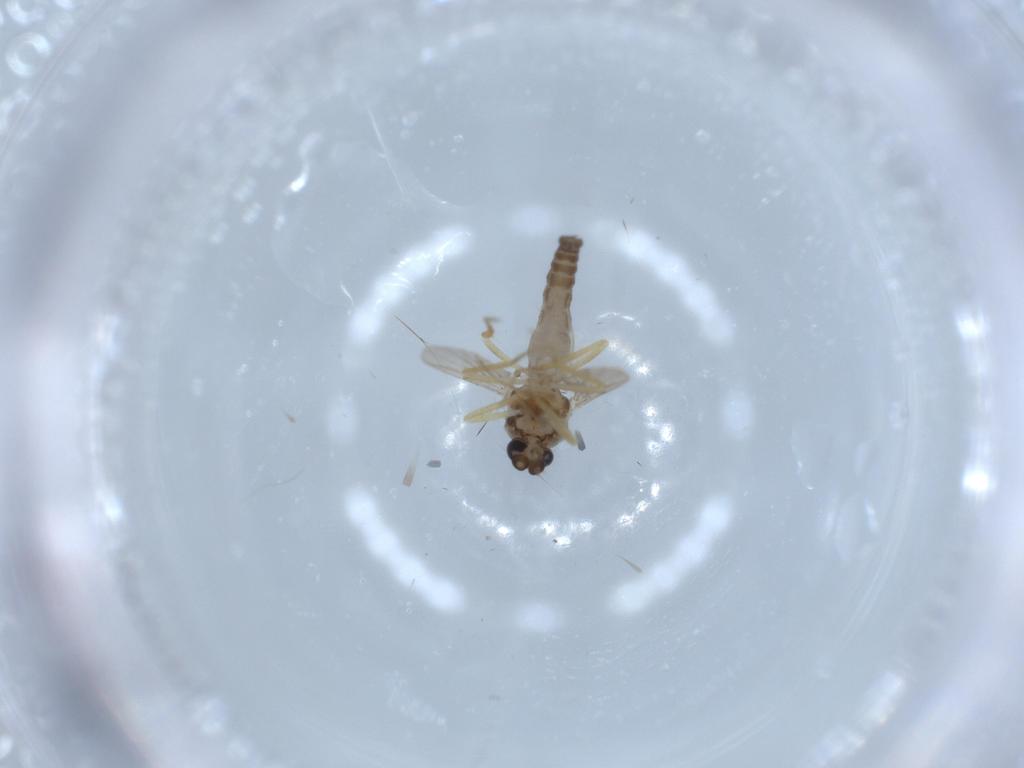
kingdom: Animalia
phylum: Arthropoda
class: Insecta
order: Diptera
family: Ceratopogonidae
